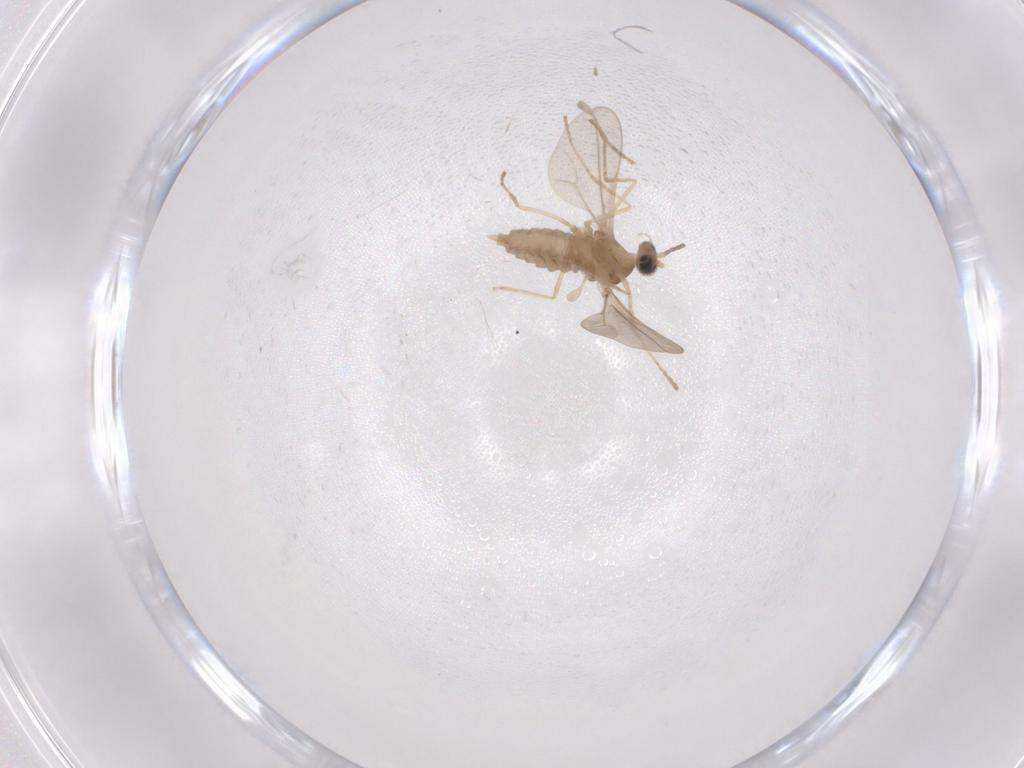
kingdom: Animalia
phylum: Arthropoda
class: Insecta
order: Diptera
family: Cecidomyiidae
